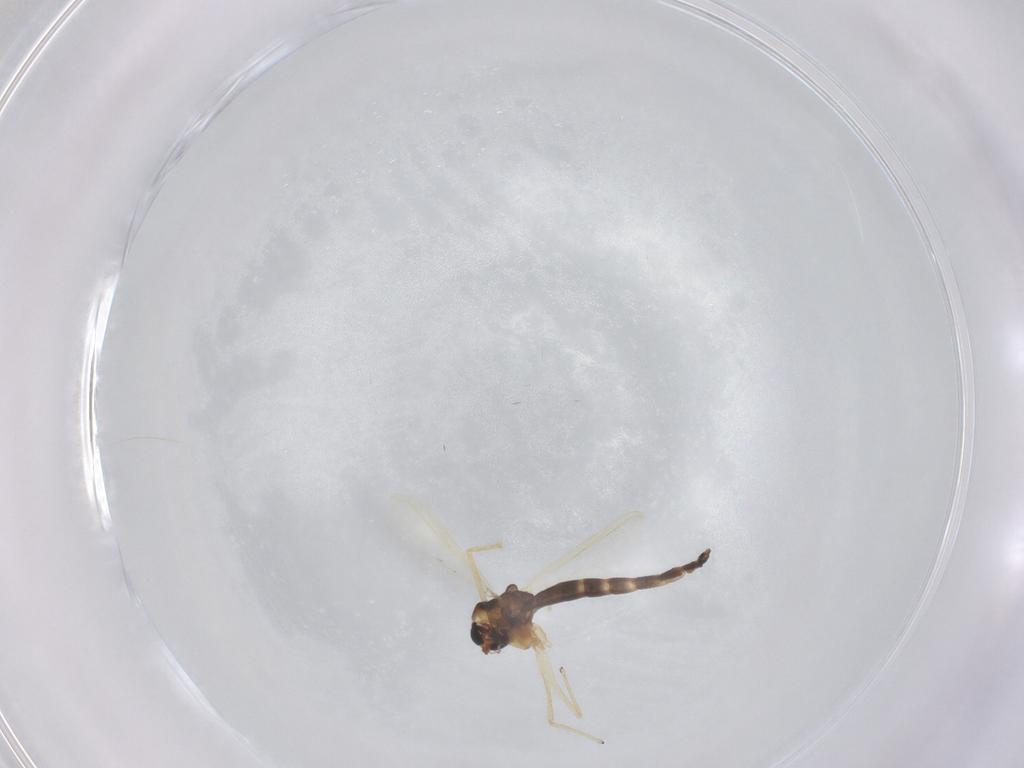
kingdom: Animalia
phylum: Arthropoda
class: Insecta
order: Diptera
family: Chironomidae
